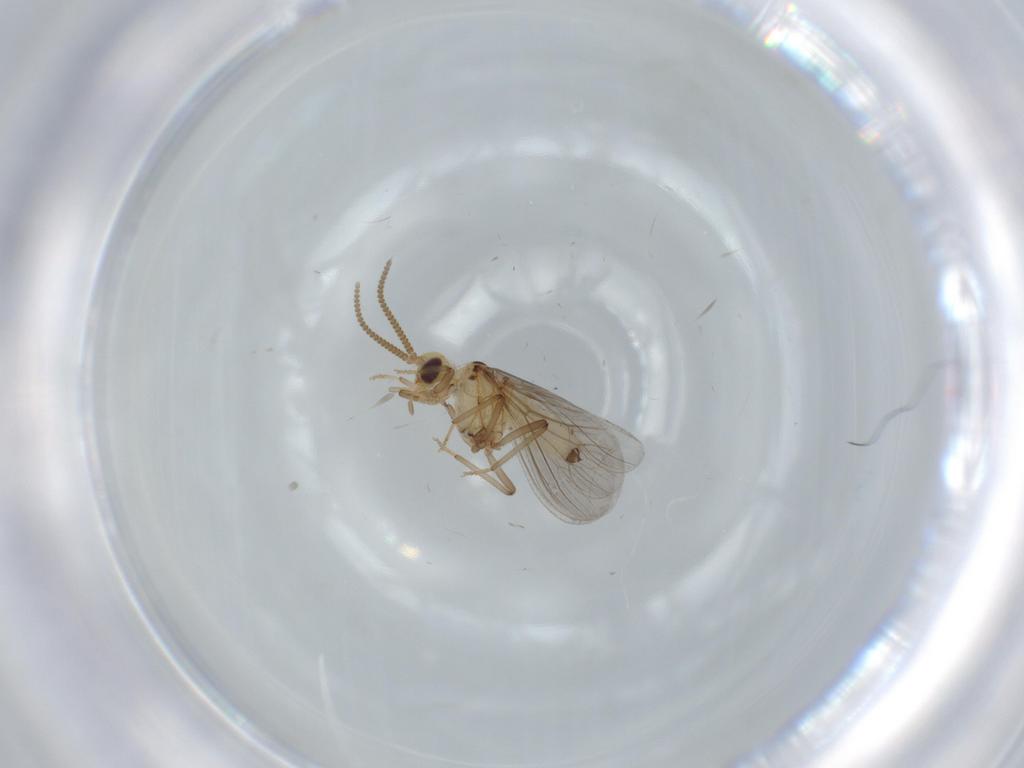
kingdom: Animalia
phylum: Arthropoda
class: Insecta
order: Neuroptera
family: Coniopterygidae
